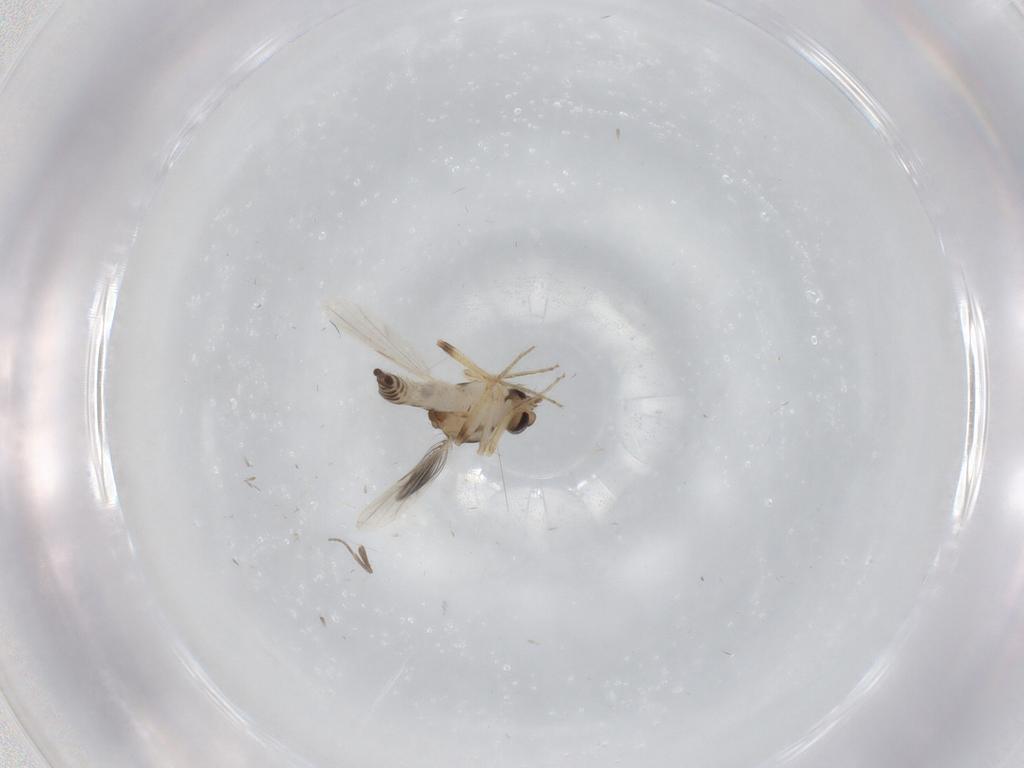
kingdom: Animalia
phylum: Arthropoda
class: Insecta
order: Diptera
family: Phoridae
